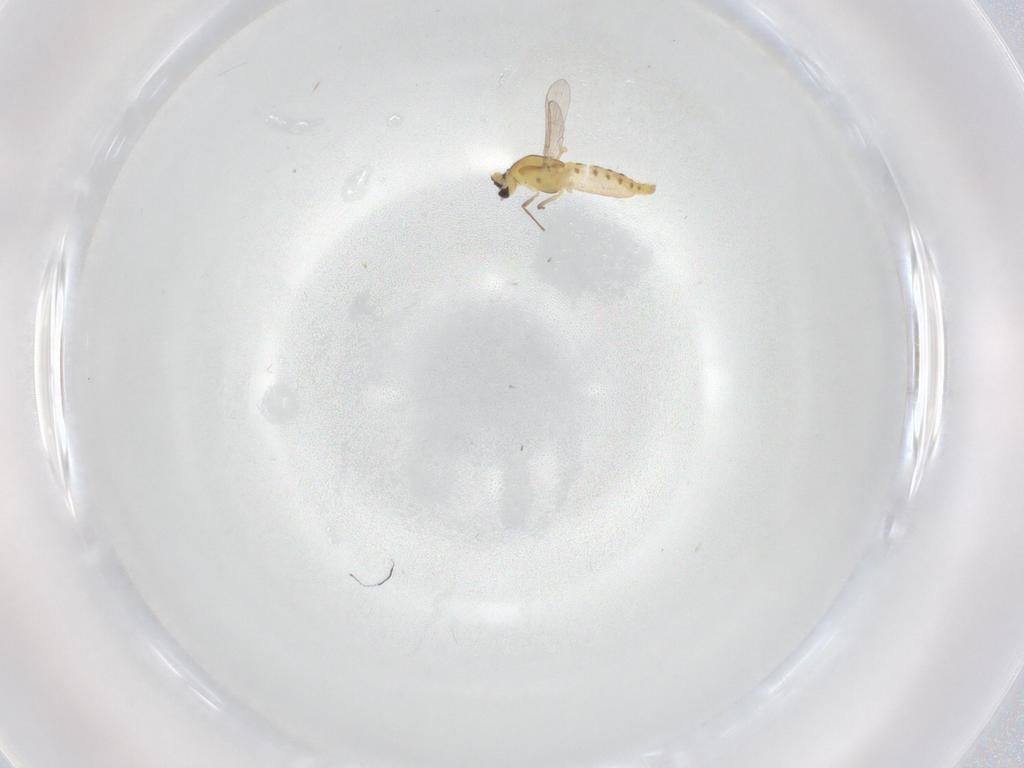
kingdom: Animalia
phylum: Arthropoda
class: Insecta
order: Diptera
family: Chironomidae
